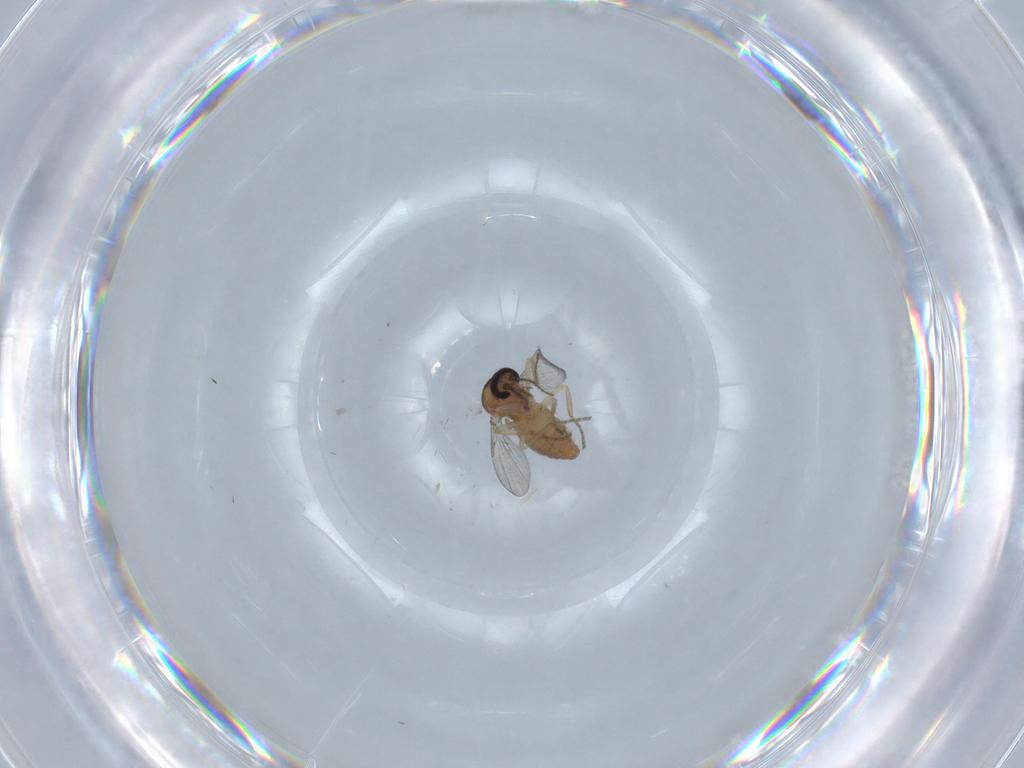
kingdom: Animalia
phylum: Arthropoda
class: Insecta
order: Diptera
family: Ceratopogonidae
